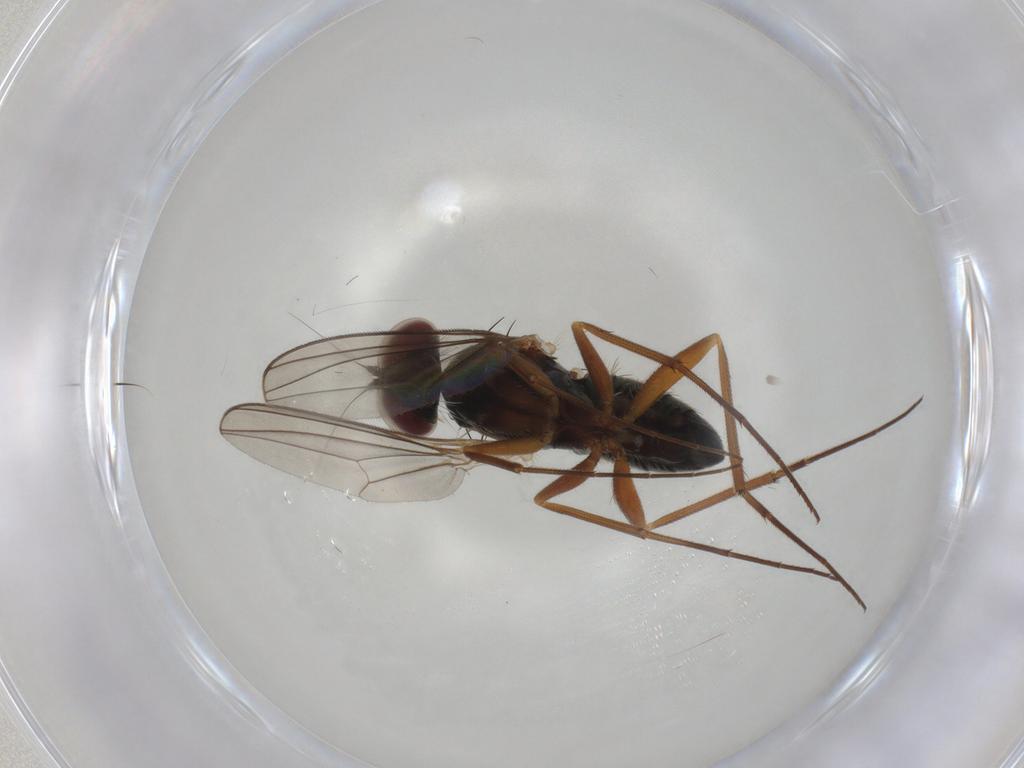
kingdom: Animalia
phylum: Arthropoda
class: Insecta
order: Diptera
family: Dolichopodidae
